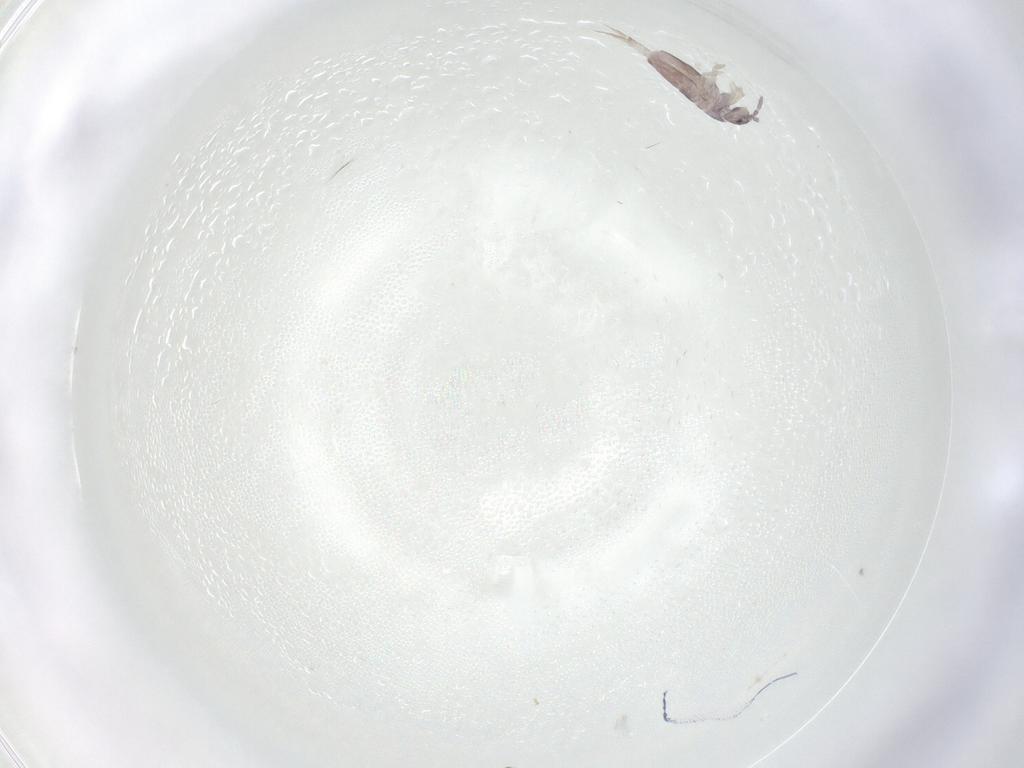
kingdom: Animalia
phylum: Arthropoda
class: Collembola
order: Entomobryomorpha
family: Entomobryidae
